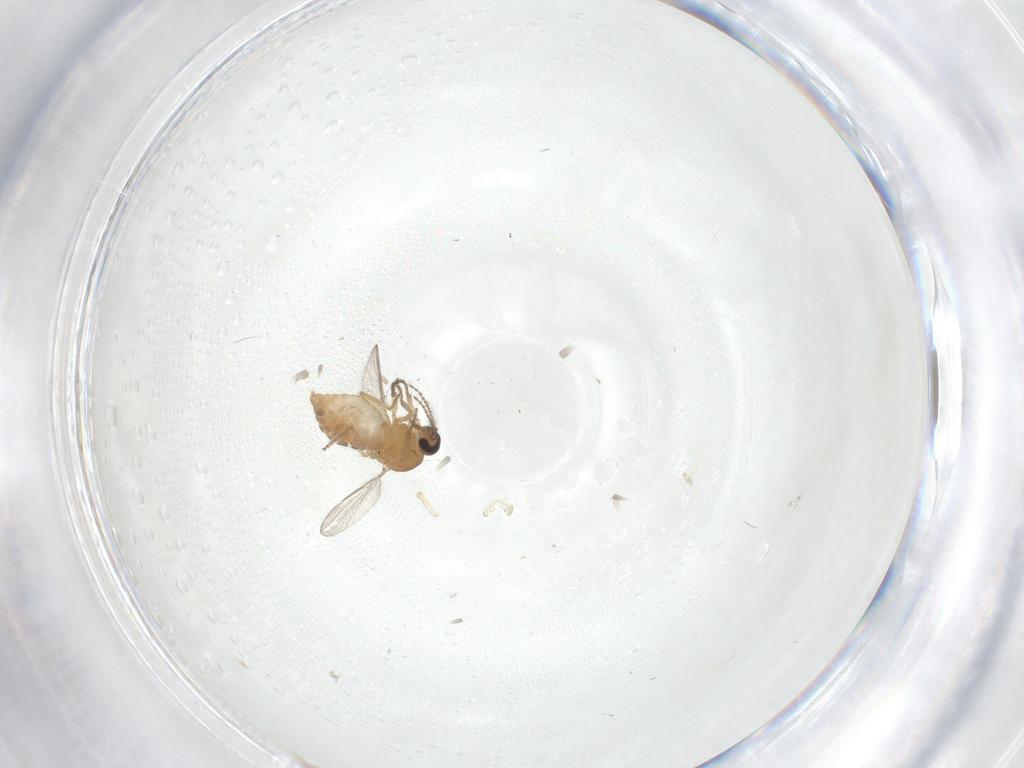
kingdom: Animalia
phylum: Arthropoda
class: Insecta
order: Diptera
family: Ceratopogonidae
